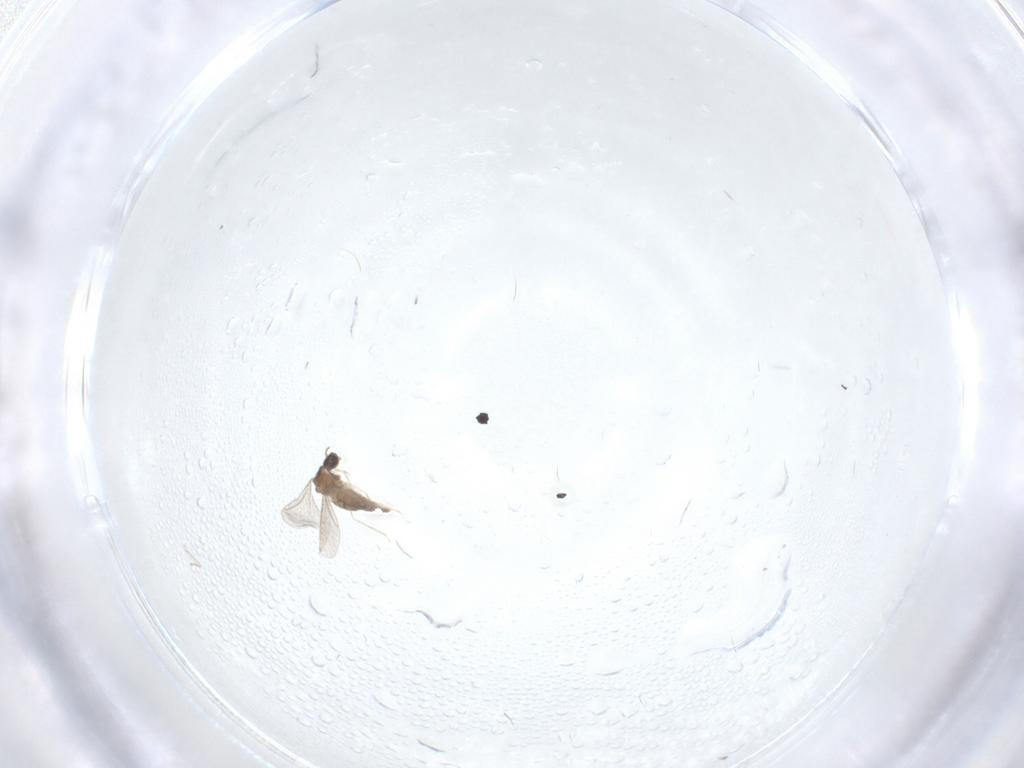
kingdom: Animalia
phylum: Arthropoda
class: Insecta
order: Diptera
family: Cecidomyiidae
